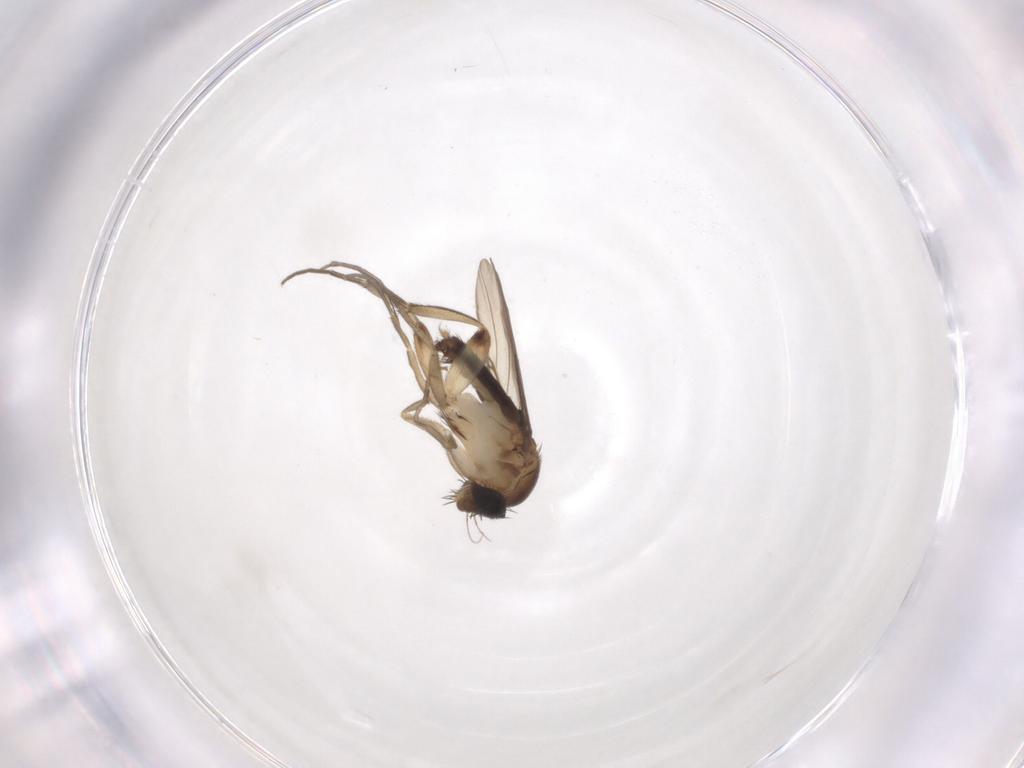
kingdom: Animalia
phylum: Arthropoda
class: Insecta
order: Diptera
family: Phoridae
